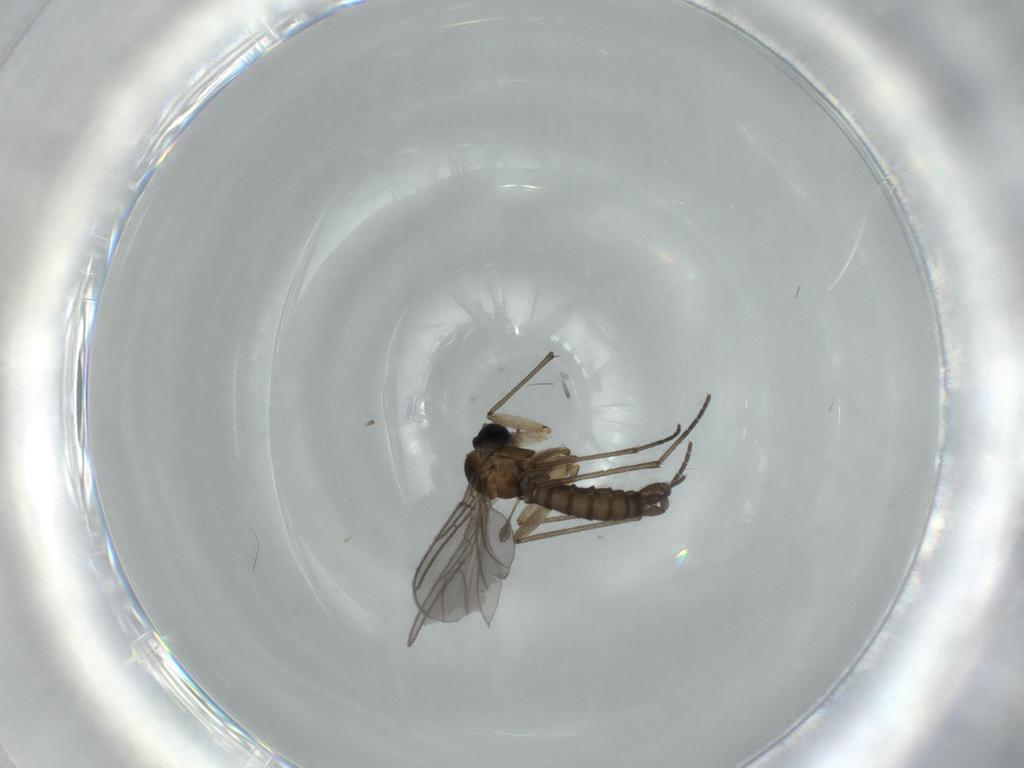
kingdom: Animalia
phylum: Arthropoda
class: Insecta
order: Diptera
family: Sciaridae
